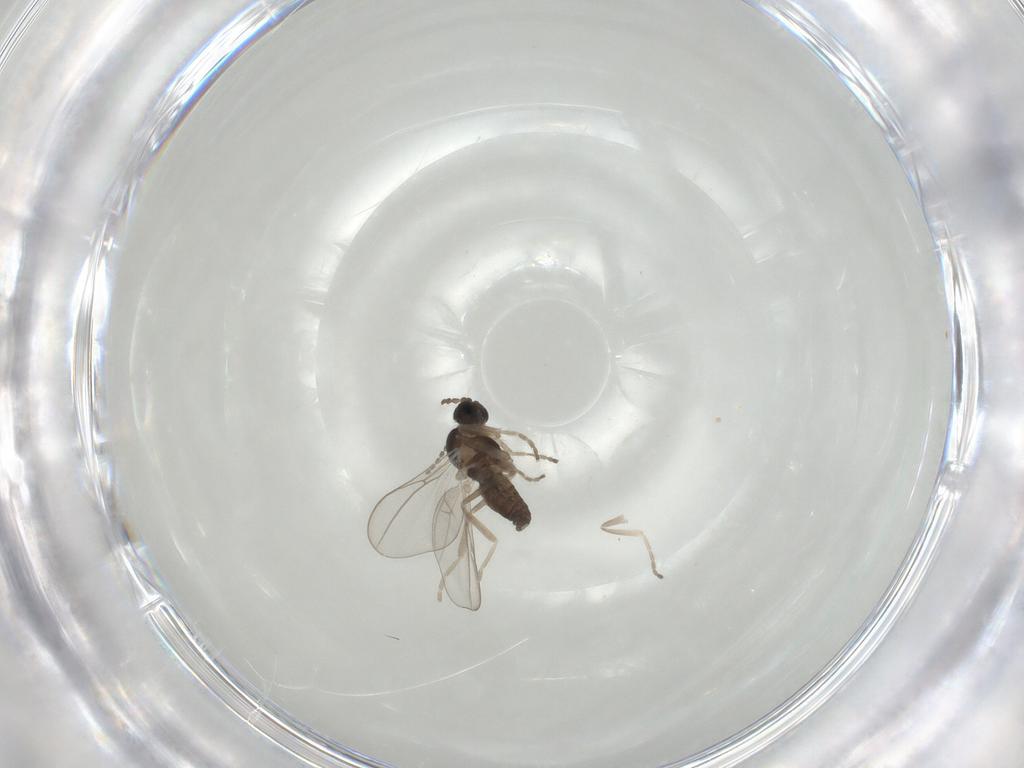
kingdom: Animalia
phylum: Arthropoda
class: Insecta
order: Diptera
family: Cecidomyiidae
